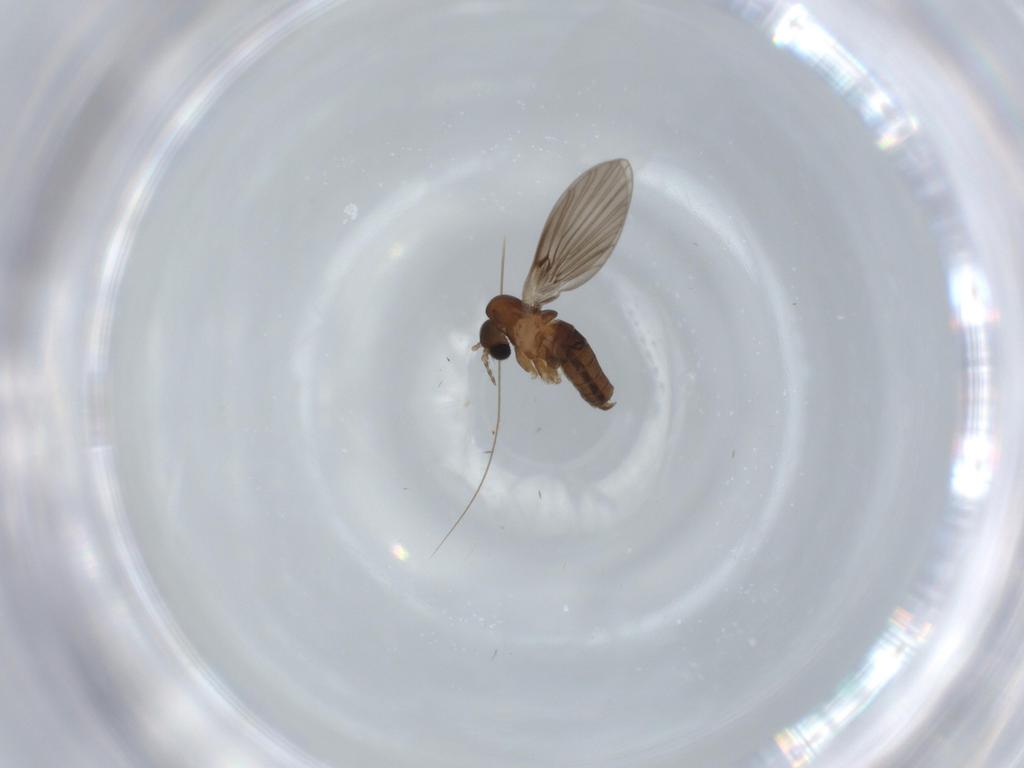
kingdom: Animalia
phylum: Arthropoda
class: Insecta
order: Diptera
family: Psychodidae
